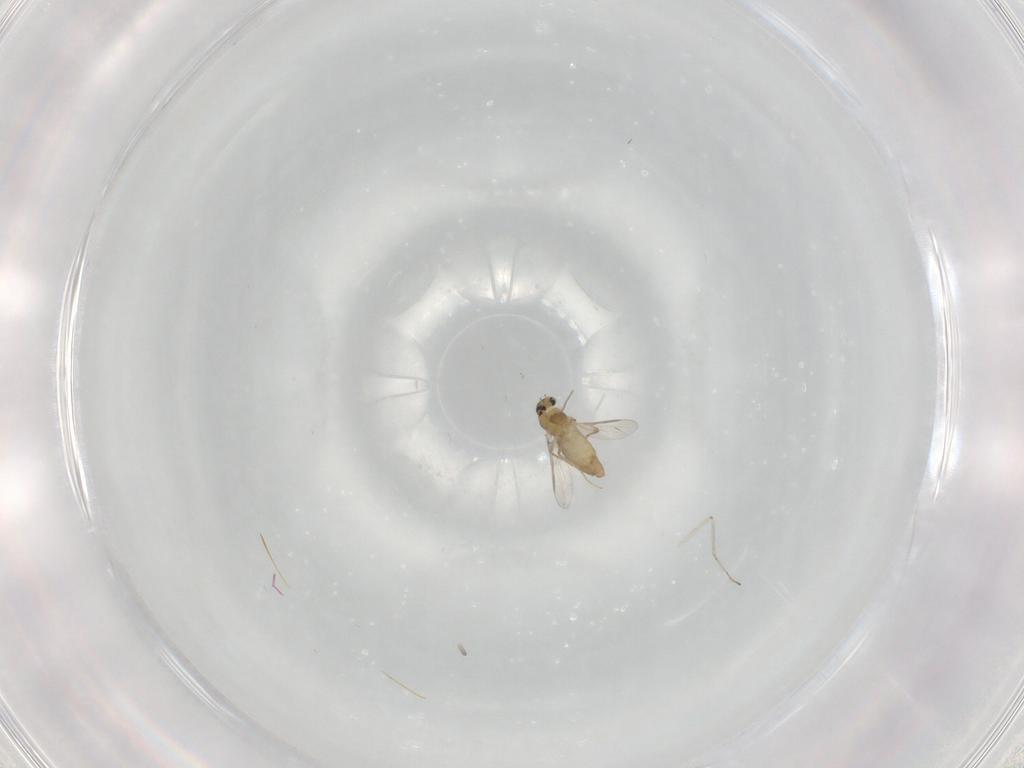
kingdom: Animalia
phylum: Arthropoda
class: Insecta
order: Diptera
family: Chironomidae
